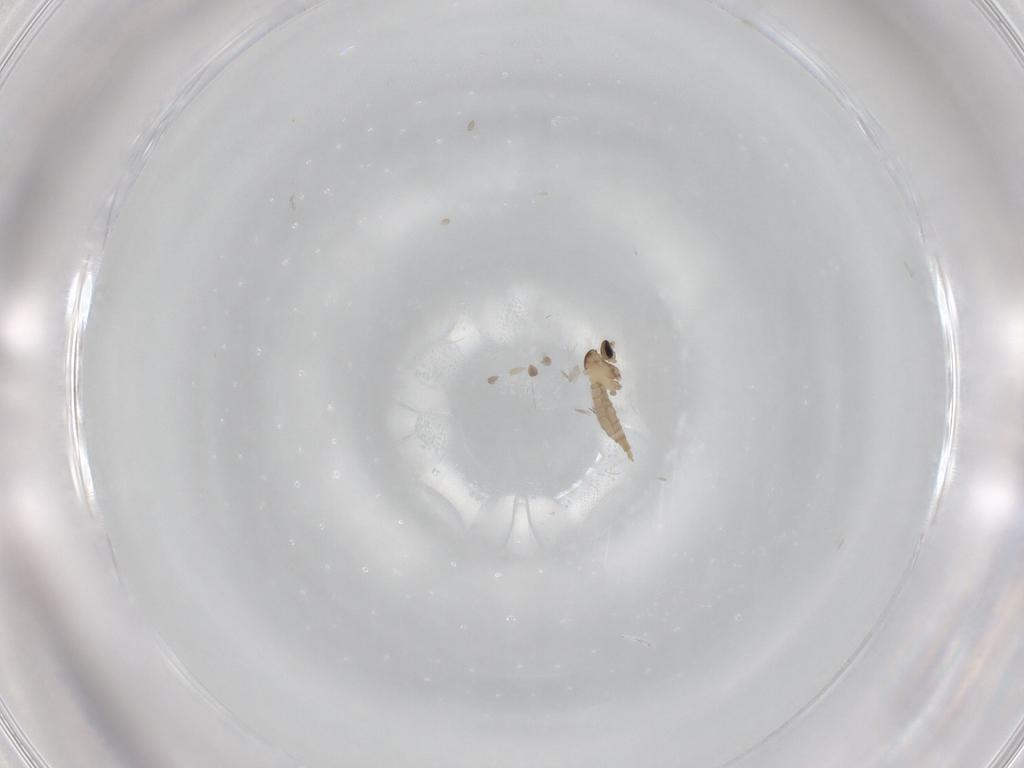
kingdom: Animalia
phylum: Arthropoda
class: Insecta
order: Diptera
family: Cecidomyiidae
